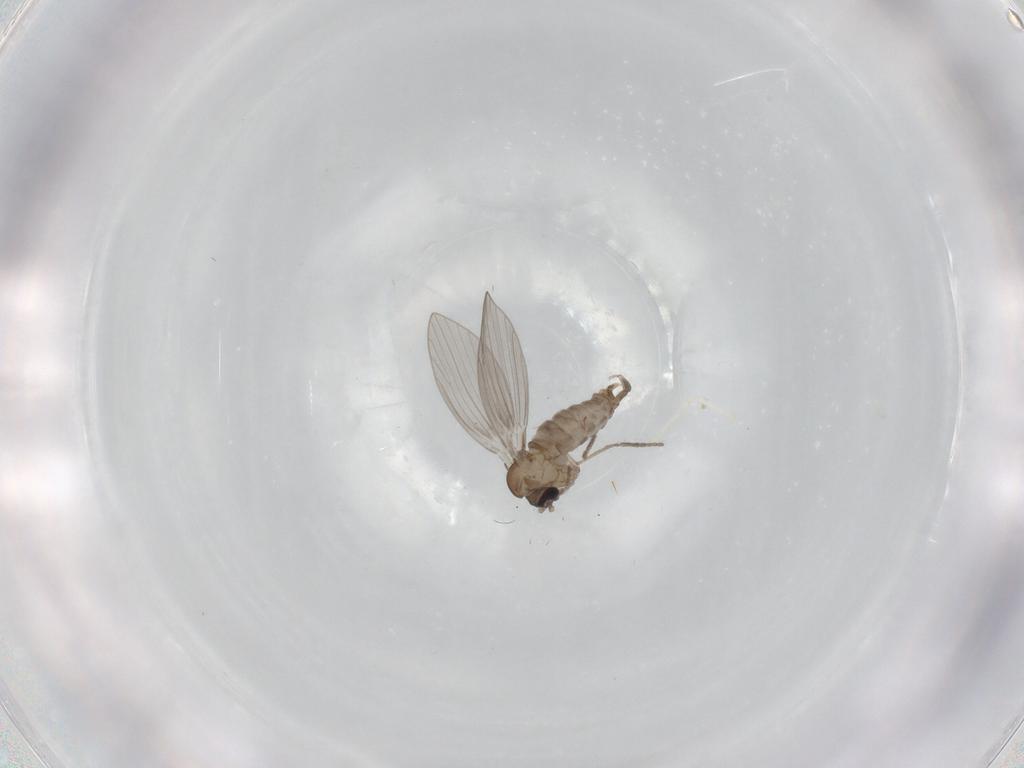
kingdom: Animalia
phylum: Arthropoda
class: Insecta
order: Diptera
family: Psychodidae
